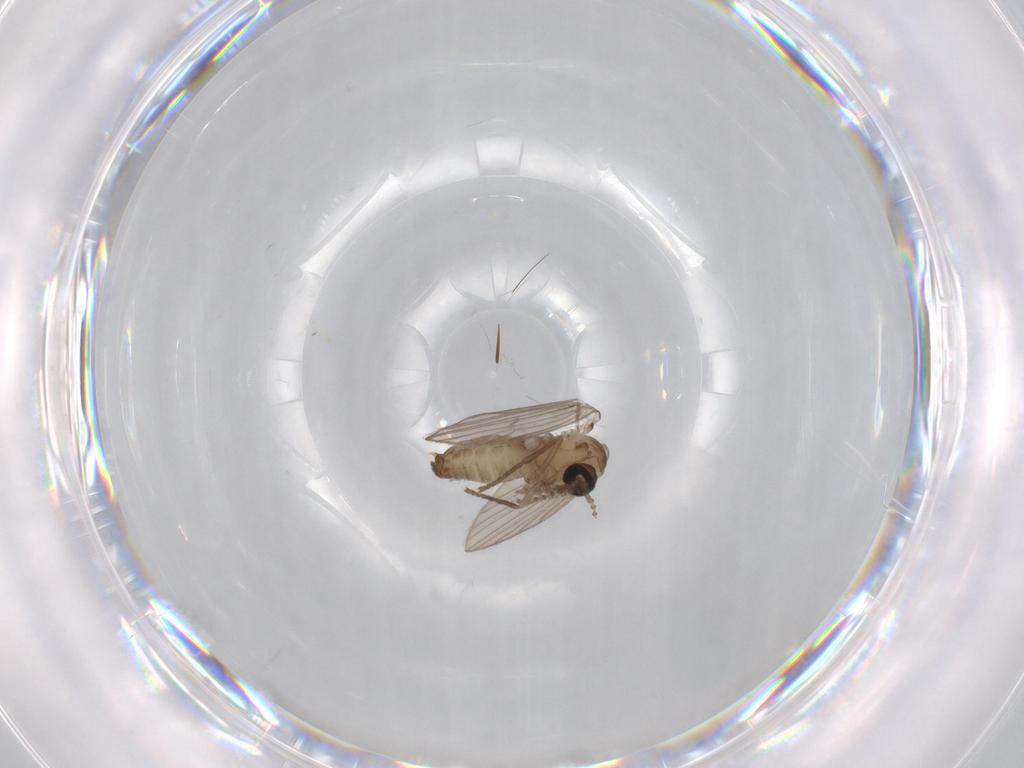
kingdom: Animalia
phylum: Arthropoda
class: Insecta
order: Diptera
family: Psychodidae
